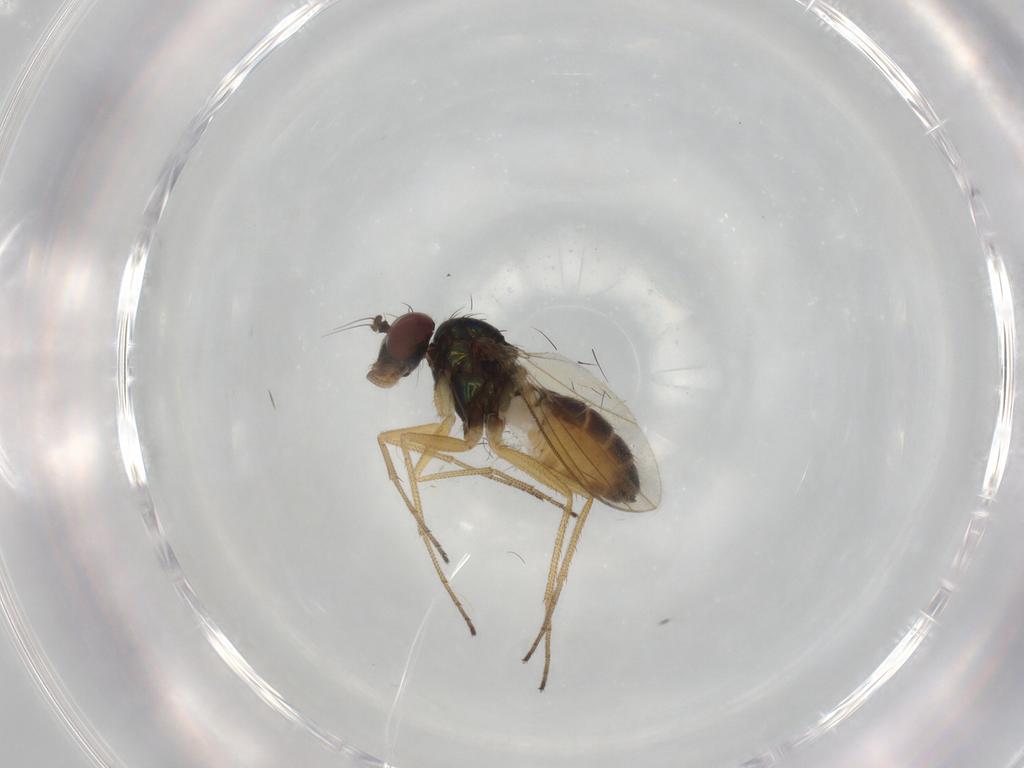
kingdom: Animalia
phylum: Arthropoda
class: Insecta
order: Diptera
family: Dolichopodidae
